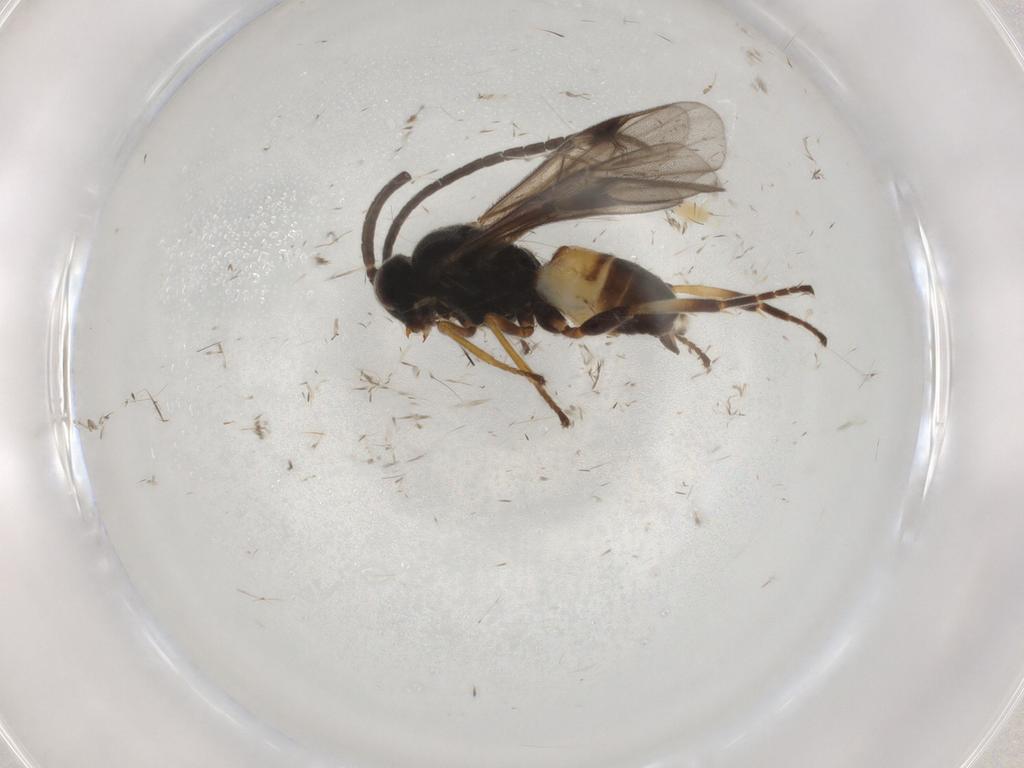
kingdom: Animalia
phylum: Arthropoda
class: Insecta
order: Hymenoptera
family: Braconidae
